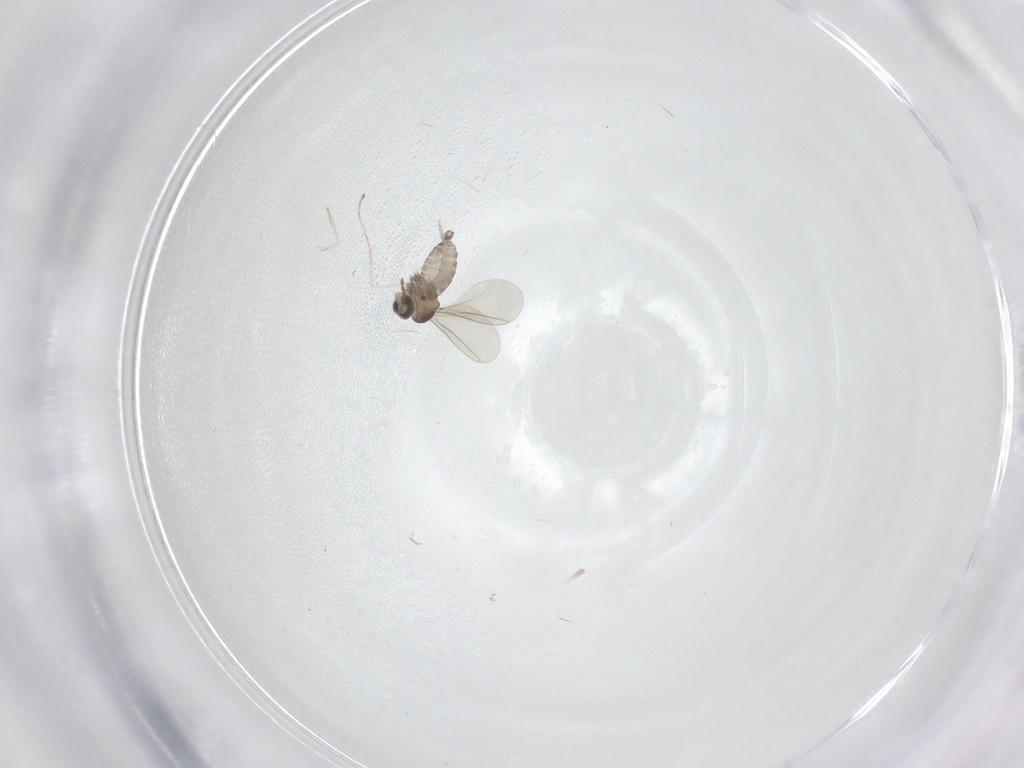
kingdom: Animalia
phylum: Arthropoda
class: Insecta
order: Diptera
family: Cecidomyiidae
